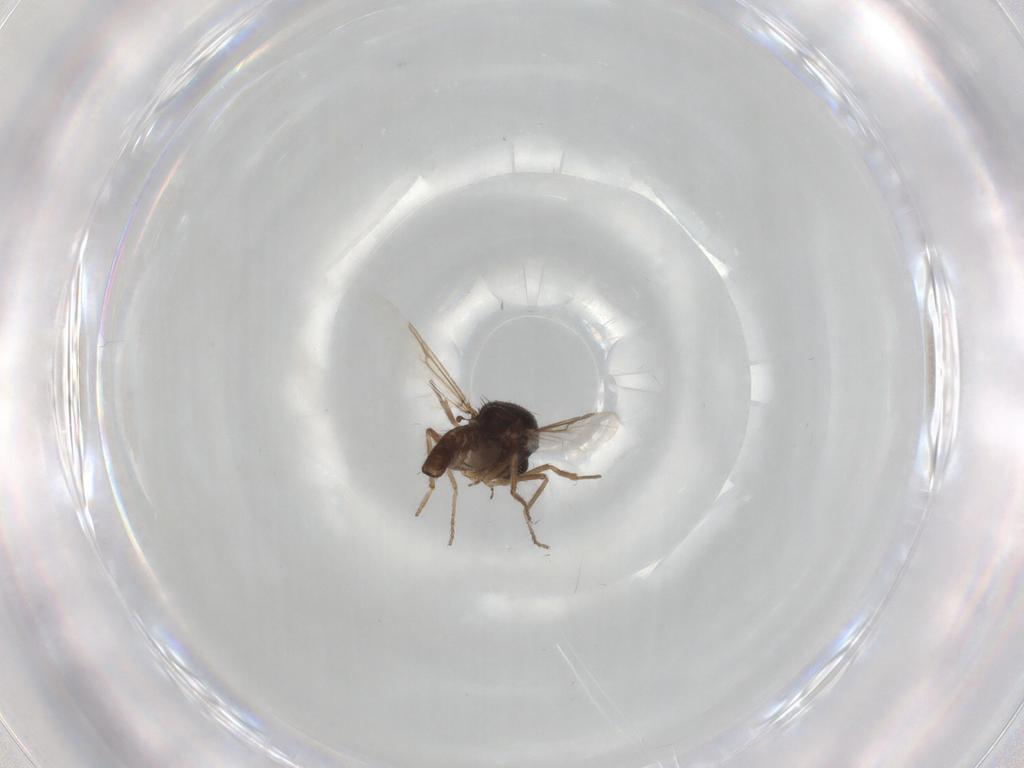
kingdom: Animalia
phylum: Arthropoda
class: Insecta
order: Diptera
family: Ceratopogonidae
